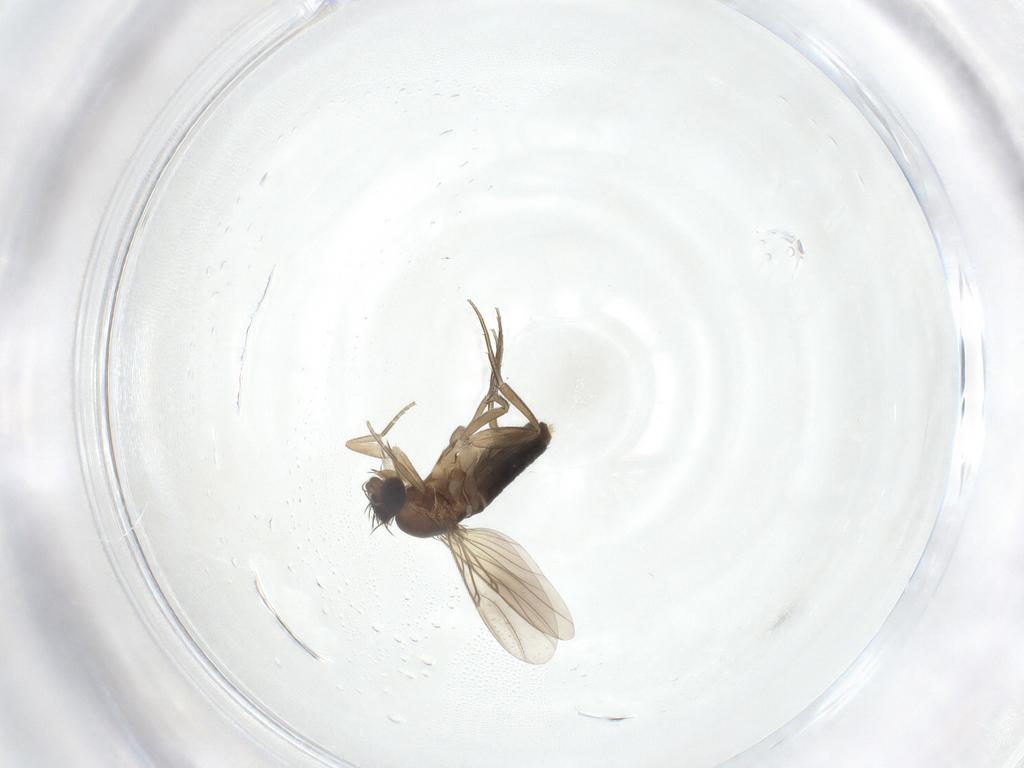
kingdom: Animalia
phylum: Arthropoda
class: Insecta
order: Diptera
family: Phoridae
